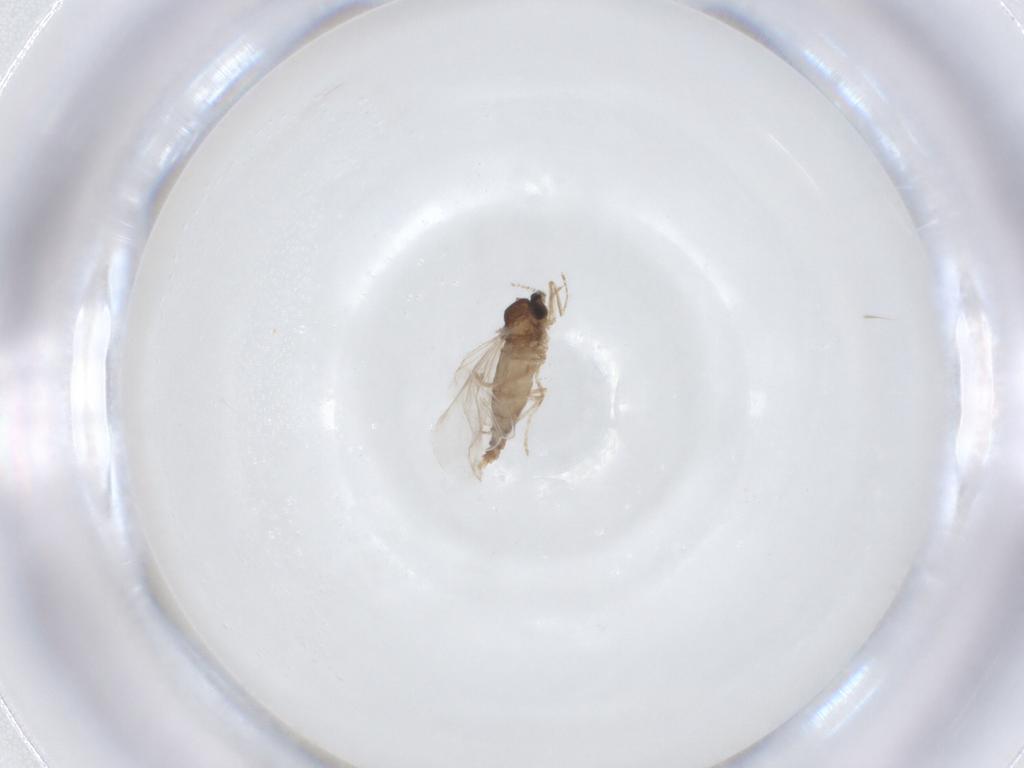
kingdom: Animalia
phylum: Arthropoda
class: Insecta
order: Diptera
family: Cecidomyiidae
